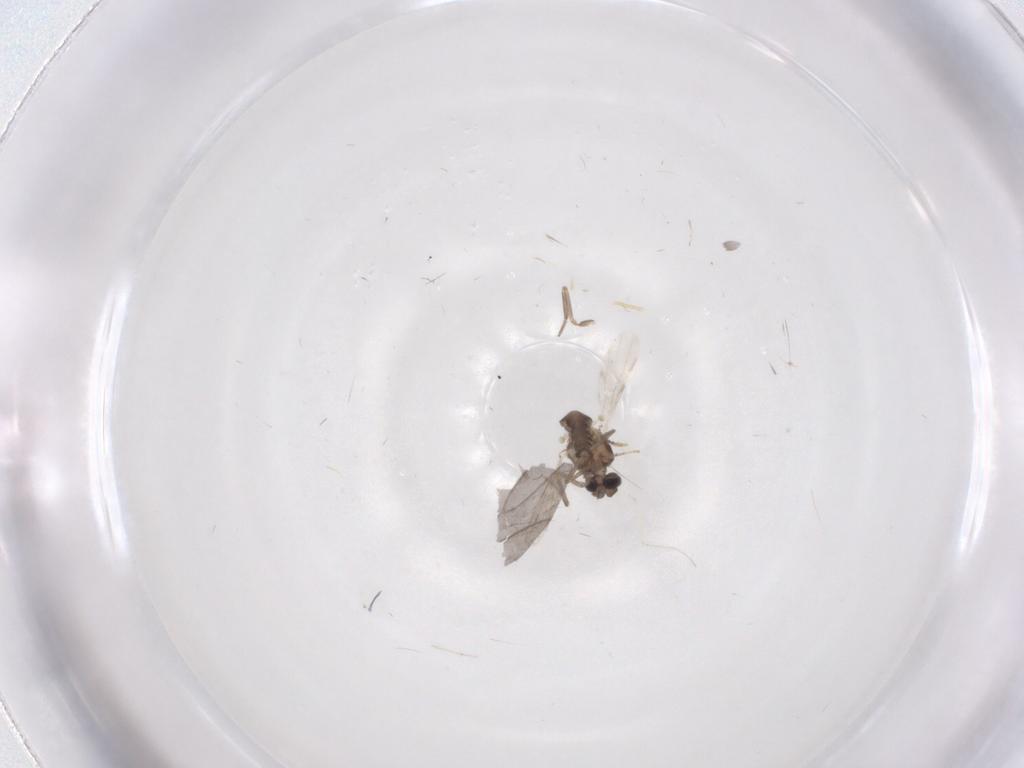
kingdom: Animalia
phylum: Arthropoda
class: Insecta
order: Diptera
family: Ceratopogonidae
